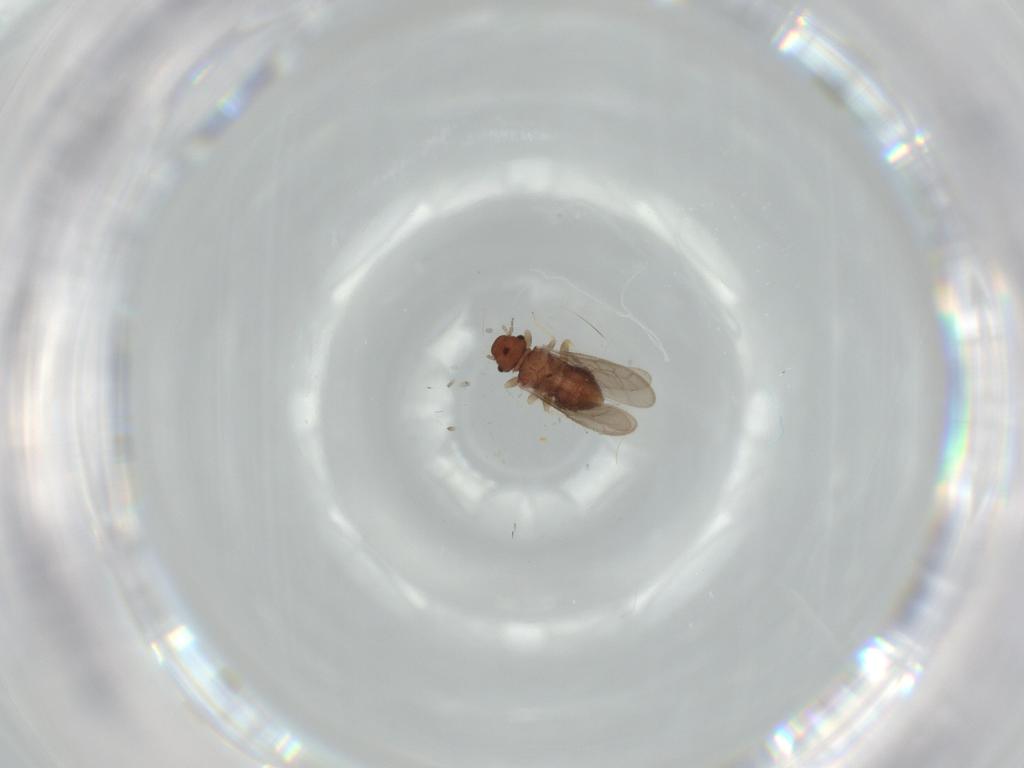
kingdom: Animalia
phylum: Arthropoda
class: Insecta
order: Psocodea
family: Archipsocidae
